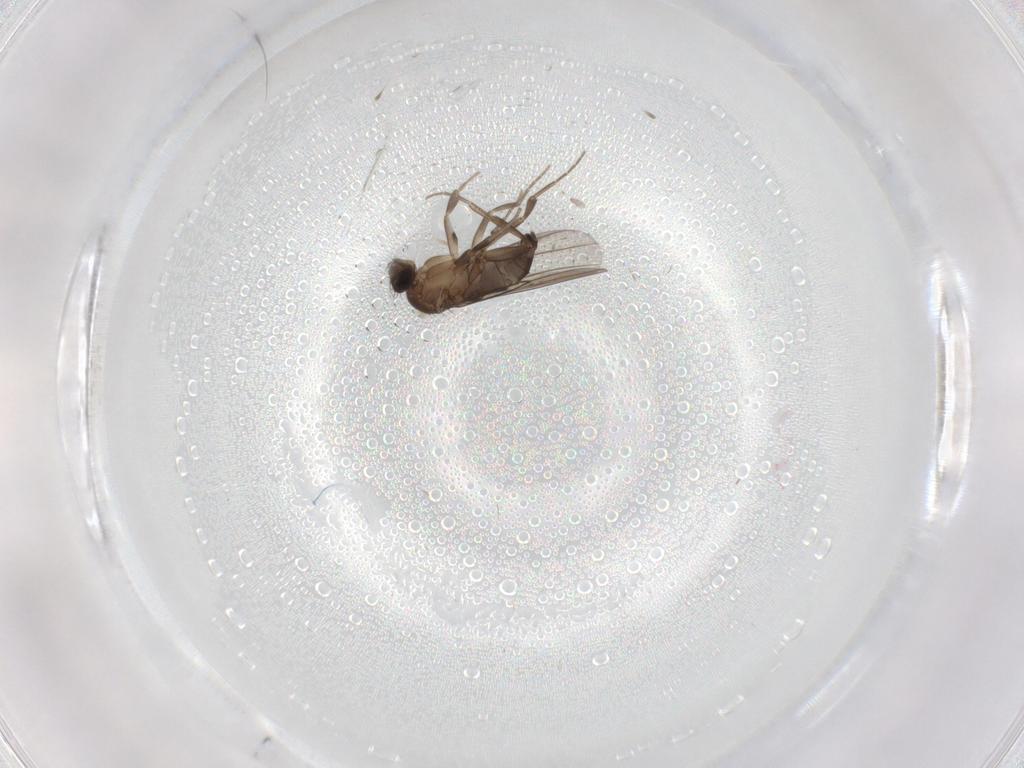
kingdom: Animalia
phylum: Arthropoda
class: Insecta
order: Diptera
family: Phoridae
